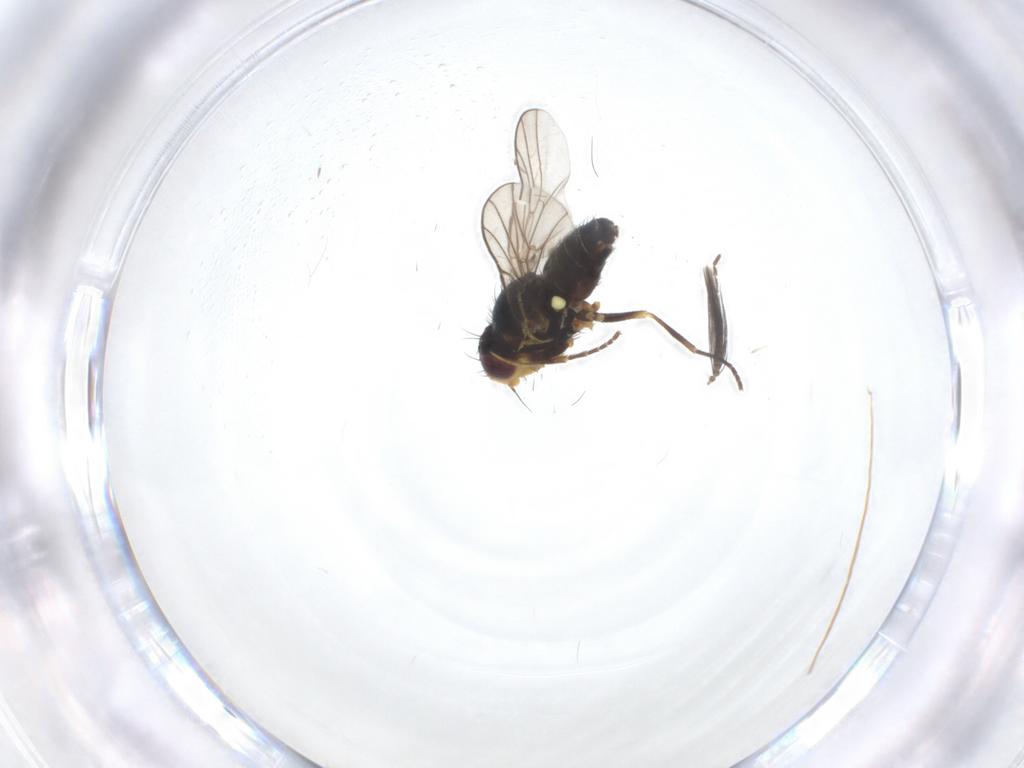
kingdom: Animalia
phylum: Arthropoda
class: Insecta
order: Diptera
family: Ceratopogonidae
